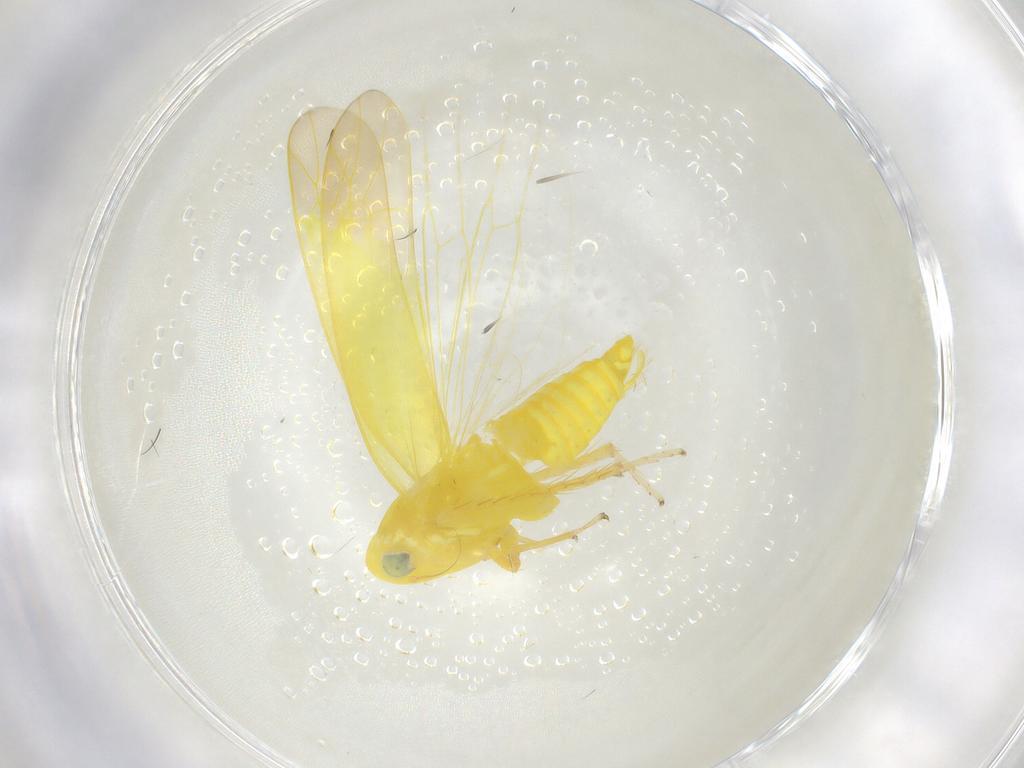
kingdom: Animalia
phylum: Arthropoda
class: Insecta
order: Hemiptera
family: Cicadellidae
